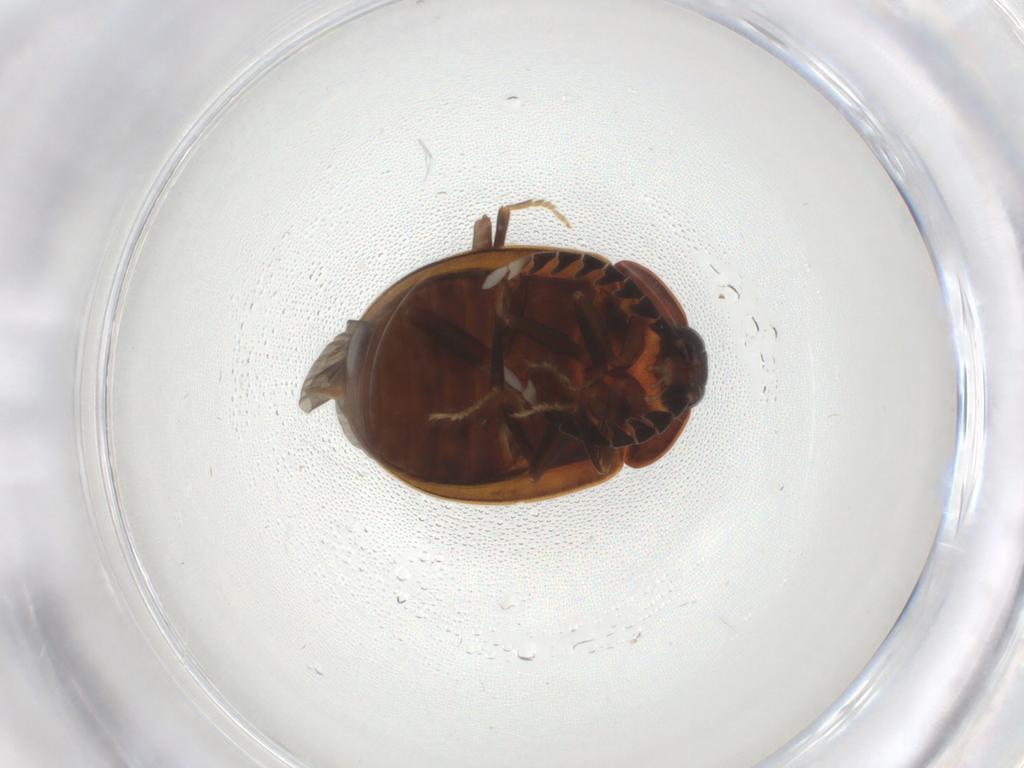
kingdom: Animalia
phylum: Arthropoda
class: Insecta
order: Coleoptera
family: Psephenidae
